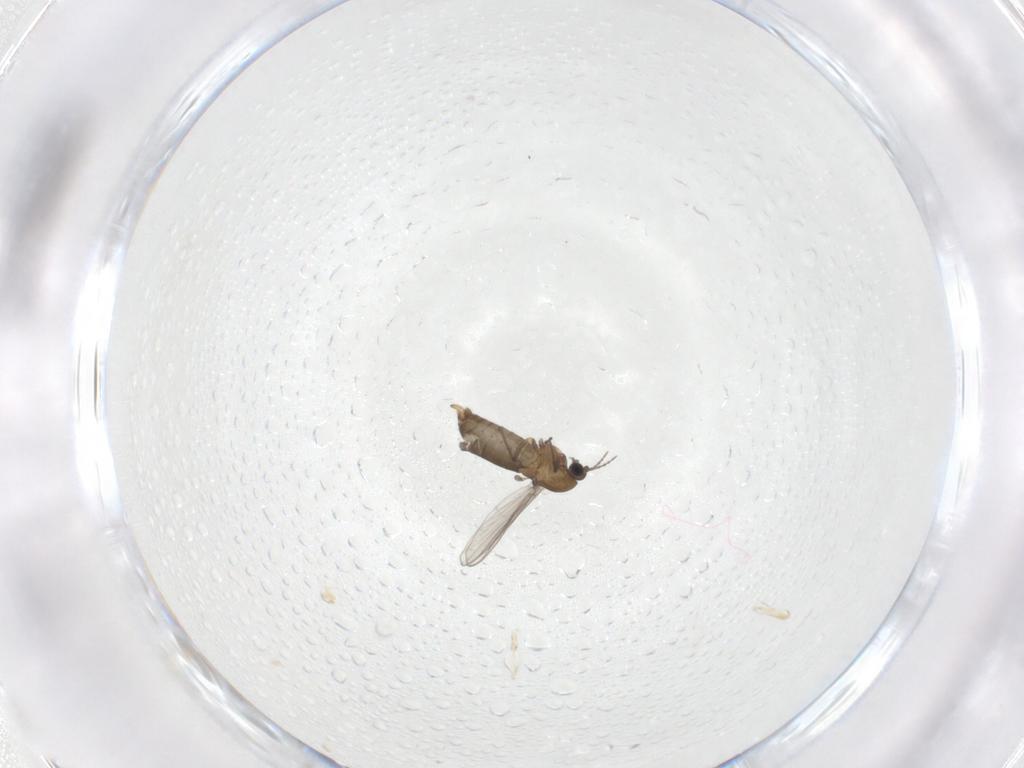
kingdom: Animalia
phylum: Arthropoda
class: Insecta
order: Diptera
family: Chironomidae
